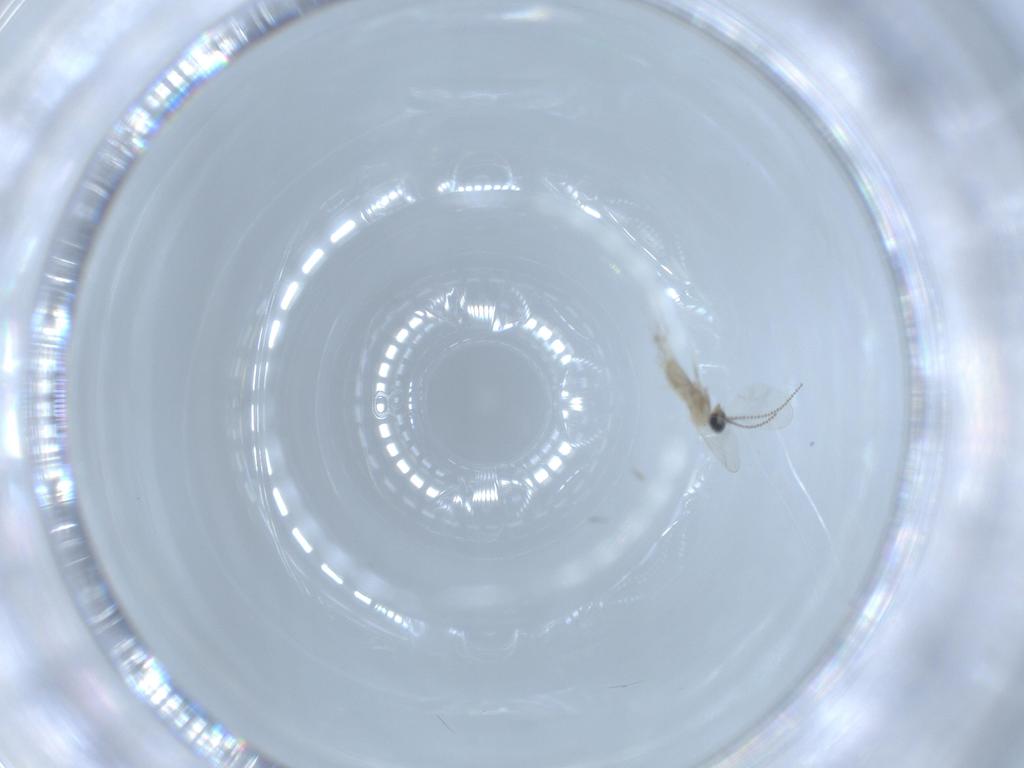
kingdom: Animalia
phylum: Arthropoda
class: Insecta
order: Diptera
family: Cecidomyiidae
